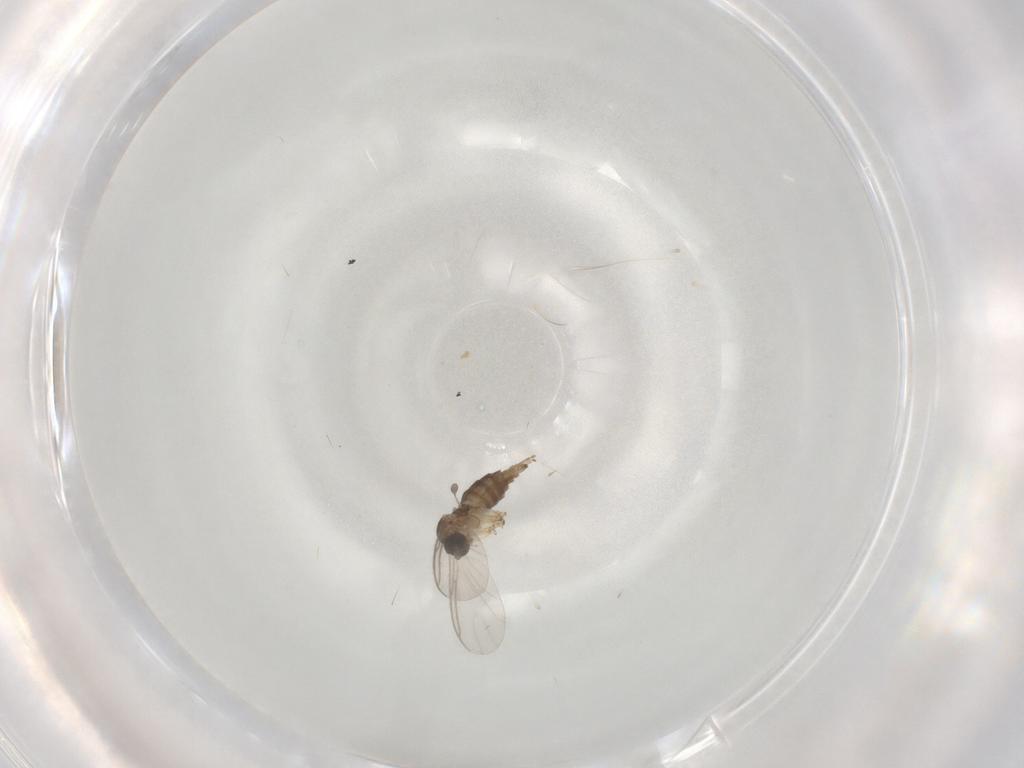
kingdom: Animalia
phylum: Arthropoda
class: Insecta
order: Diptera
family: Sciaridae
